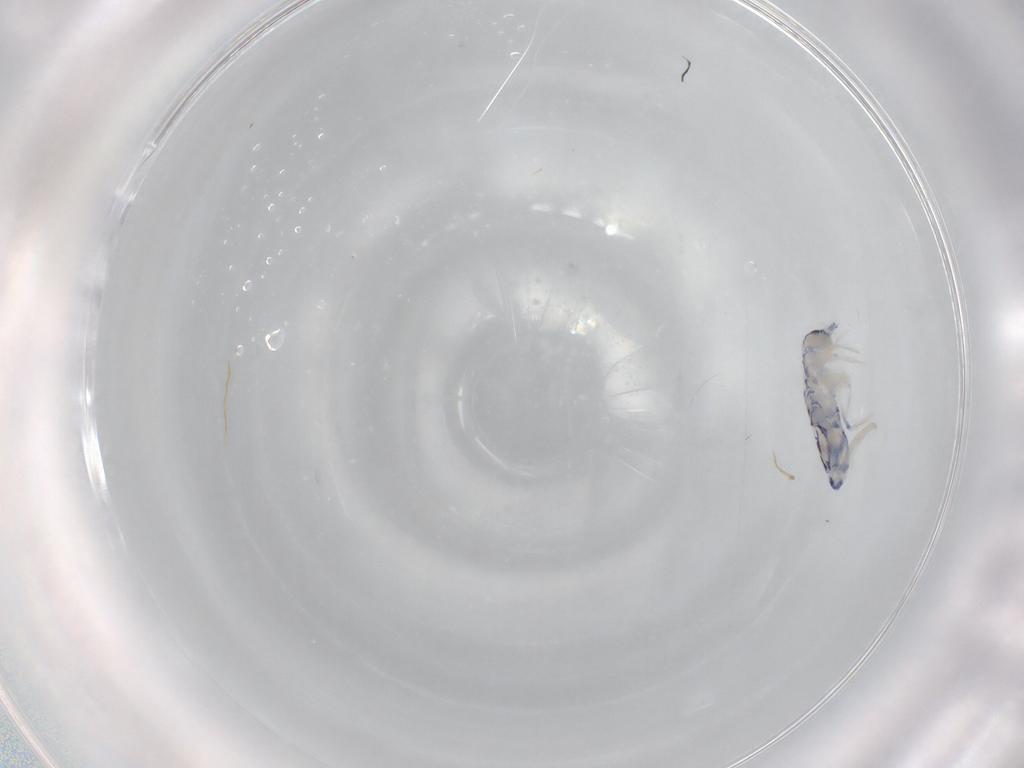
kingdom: Animalia
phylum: Arthropoda
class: Collembola
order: Entomobryomorpha
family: Entomobryidae
